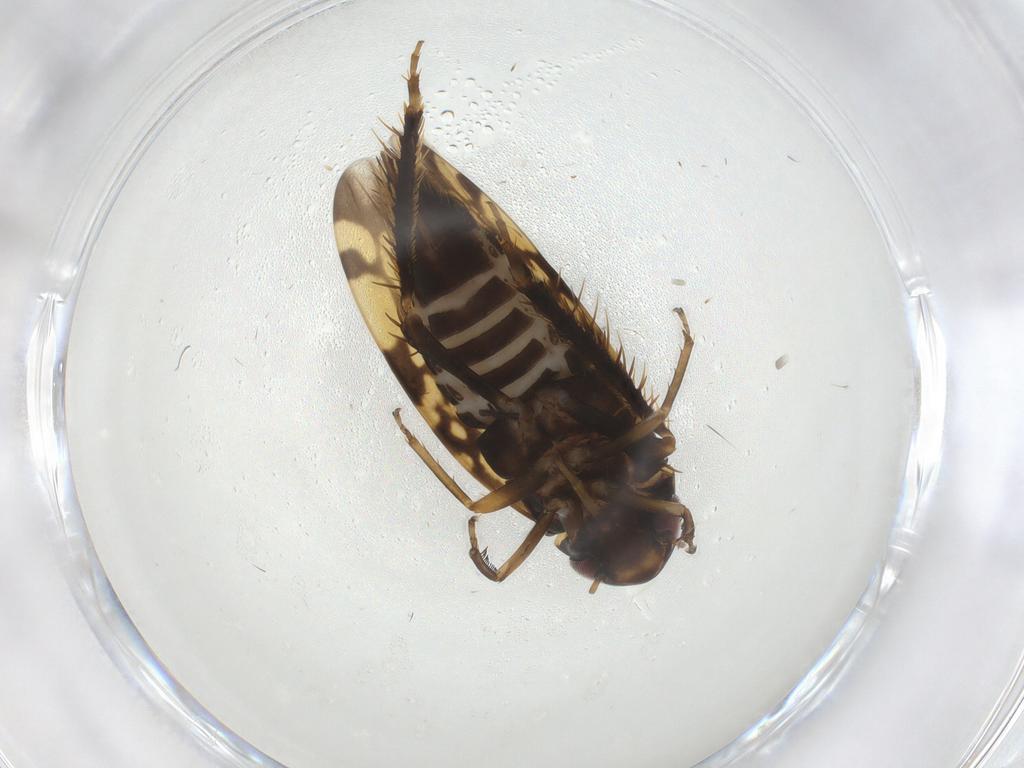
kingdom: Animalia
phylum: Arthropoda
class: Insecta
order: Hemiptera
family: Cicadellidae
